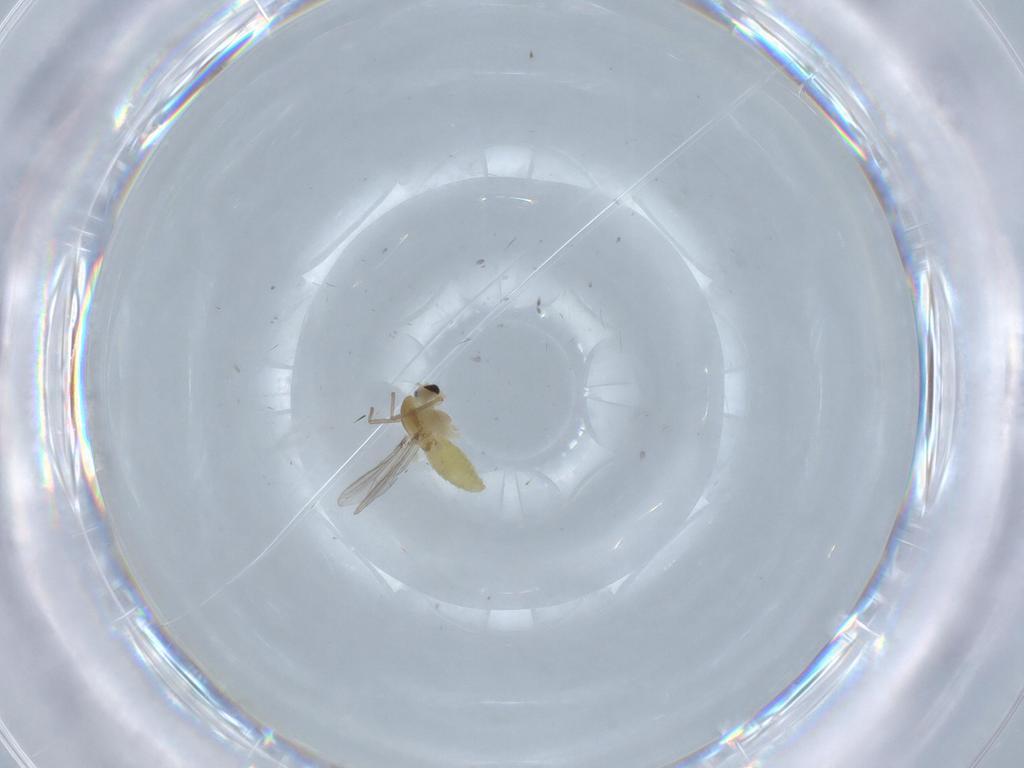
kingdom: Animalia
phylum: Arthropoda
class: Insecta
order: Diptera
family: Chironomidae
